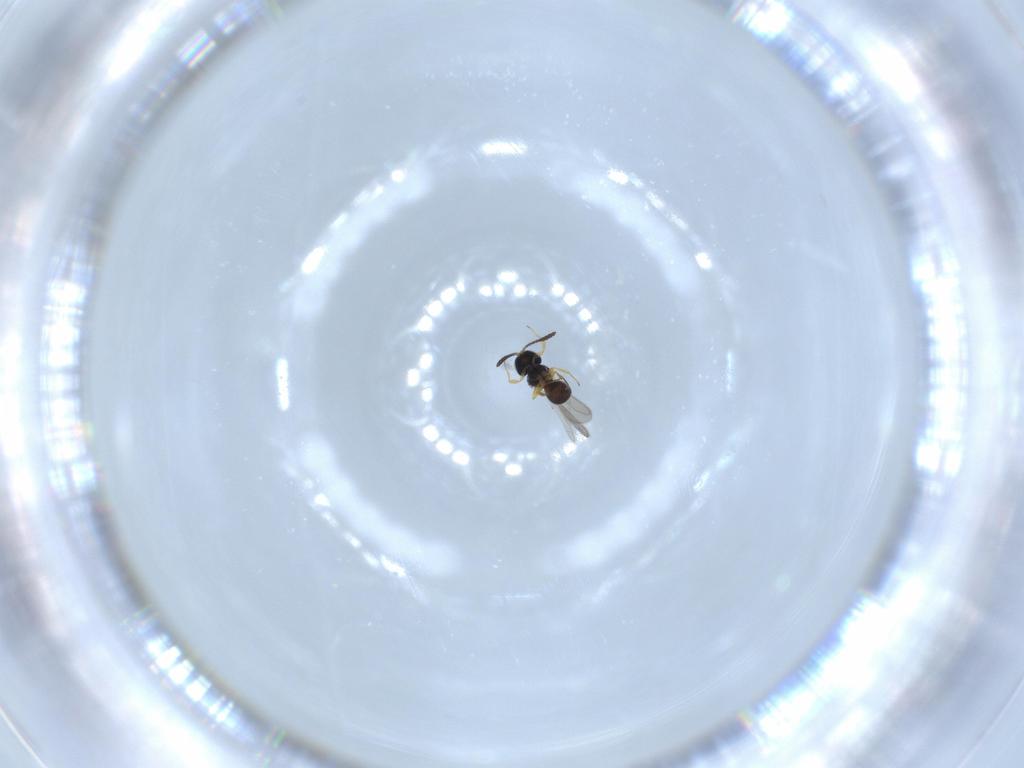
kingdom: Animalia
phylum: Arthropoda
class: Insecta
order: Hymenoptera
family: Scelionidae
